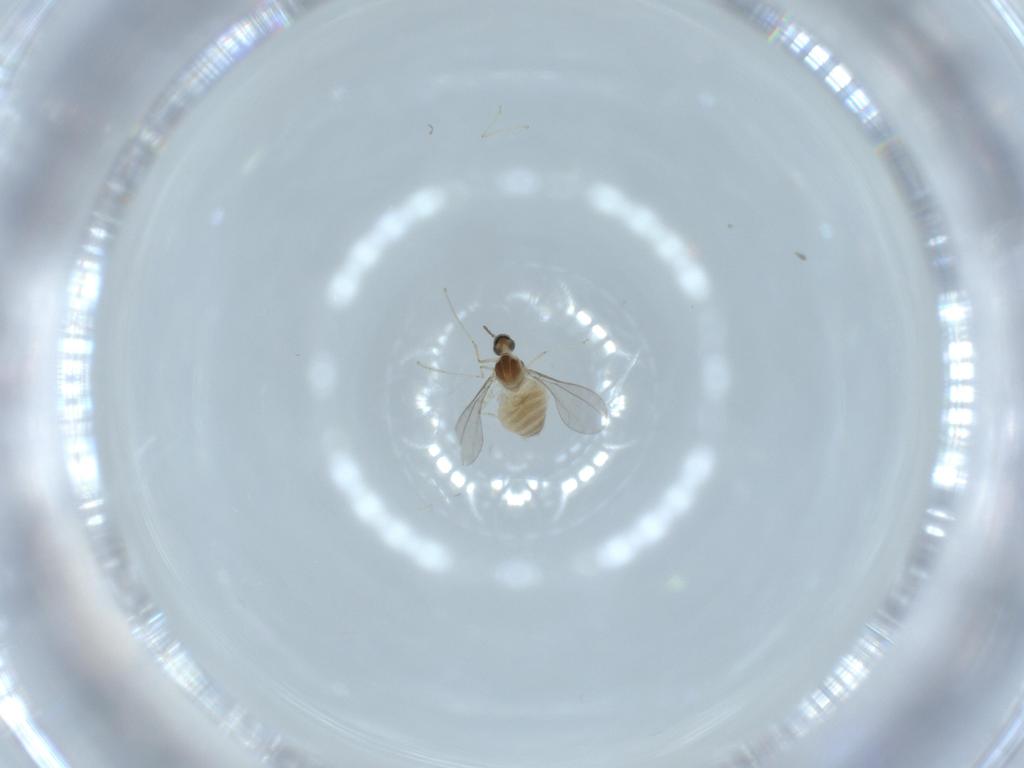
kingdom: Animalia
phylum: Arthropoda
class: Insecta
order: Diptera
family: Cecidomyiidae
